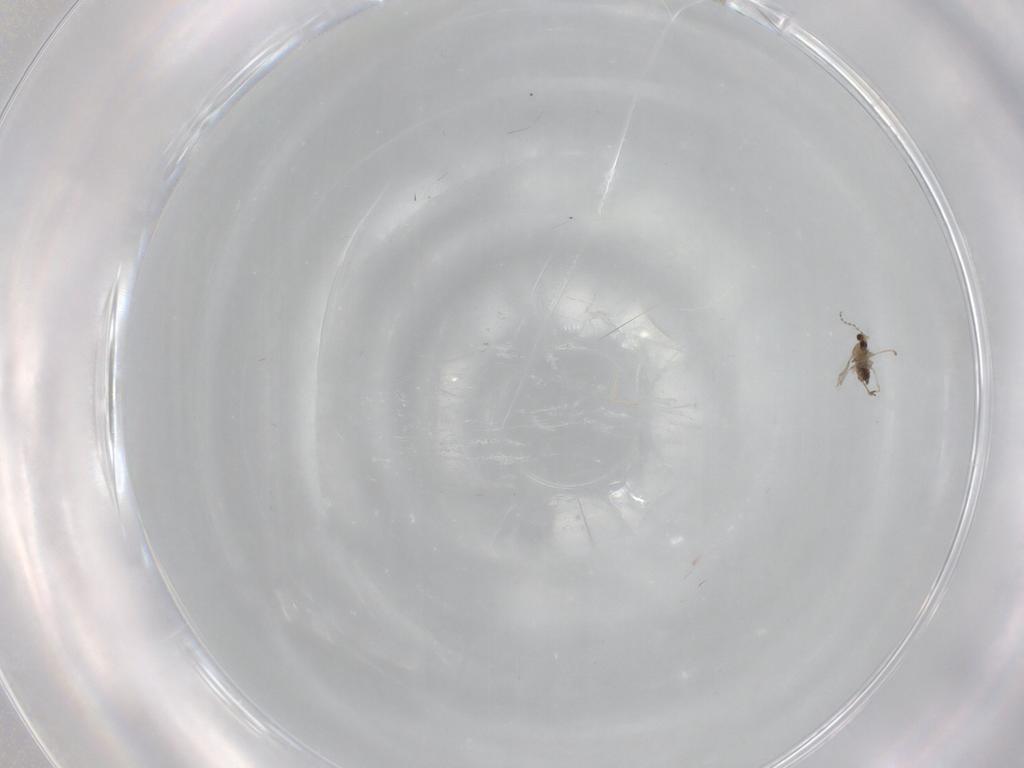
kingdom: Animalia
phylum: Arthropoda
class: Insecta
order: Diptera
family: Cecidomyiidae
